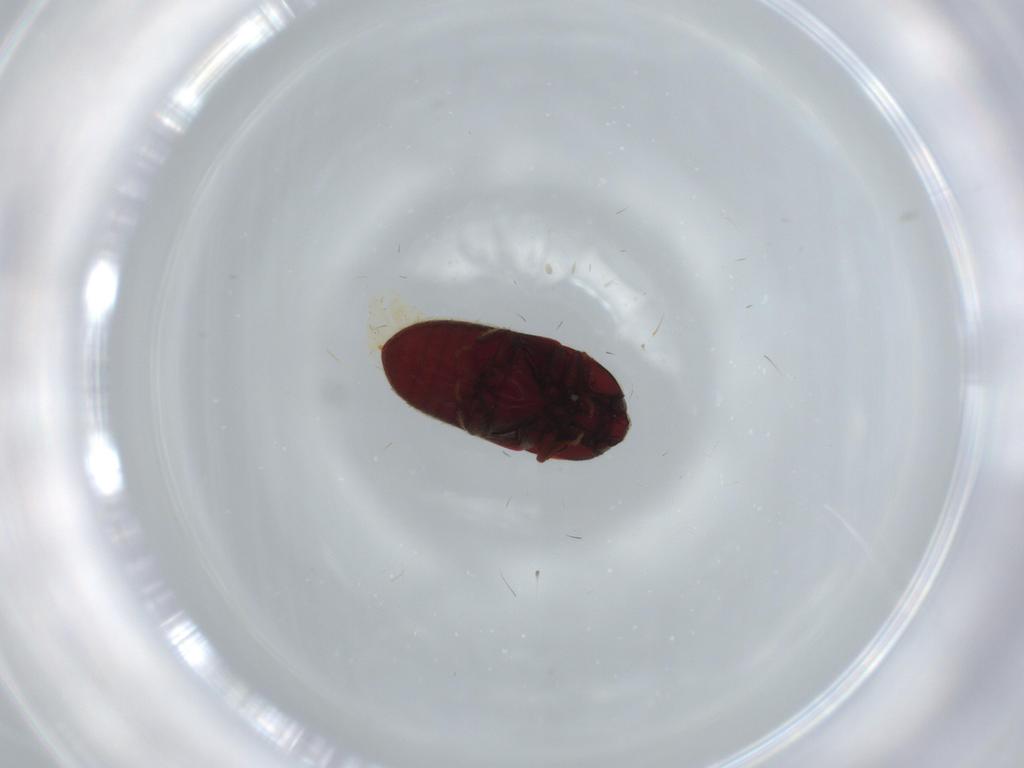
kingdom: Animalia
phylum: Arthropoda
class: Insecta
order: Coleoptera
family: Throscidae
